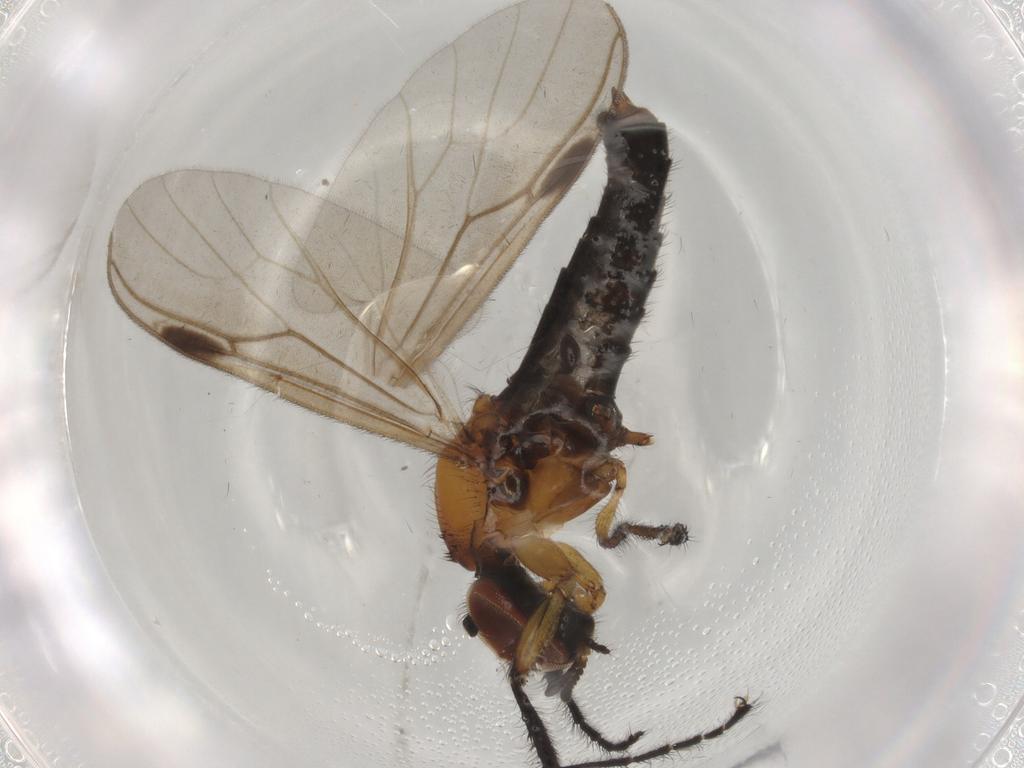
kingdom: Animalia
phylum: Arthropoda
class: Insecta
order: Diptera
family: Bibionidae
